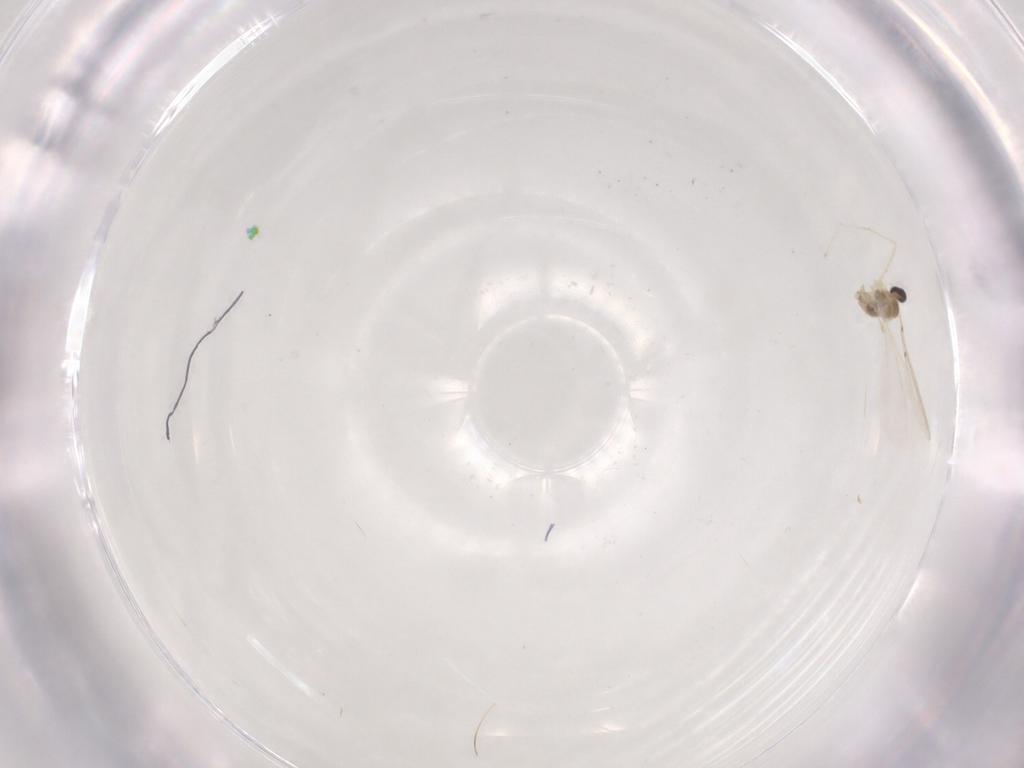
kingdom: Animalia
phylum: Arthropoda
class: Insecta
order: Diptera
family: Cecidomyiidae
